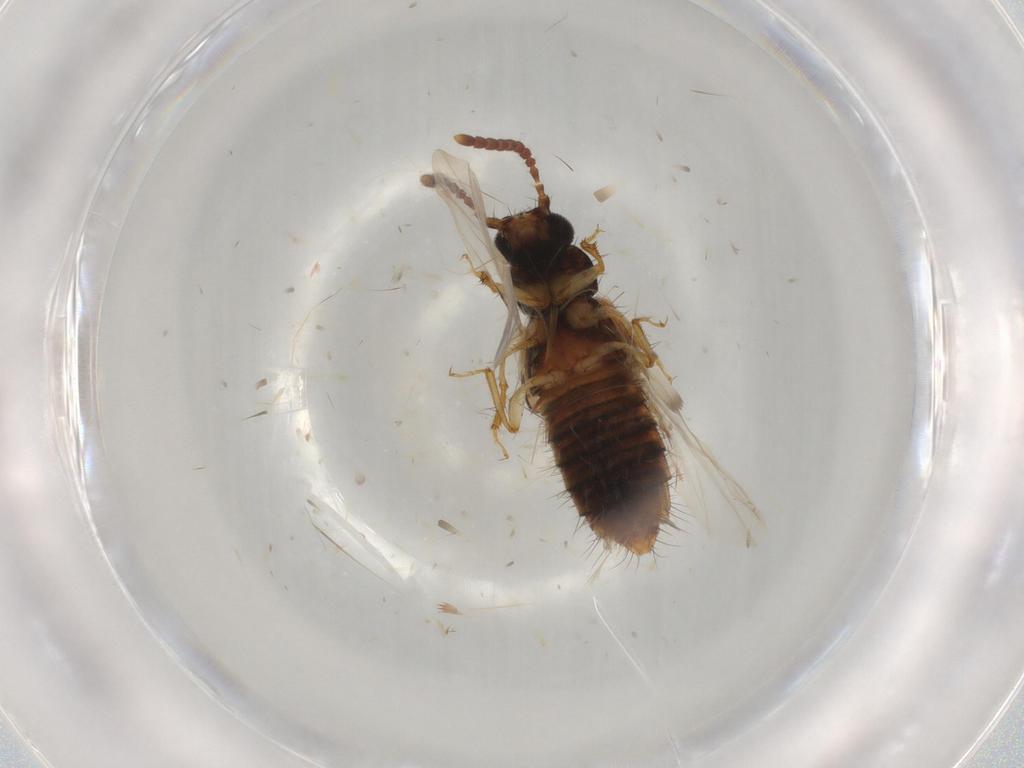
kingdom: Animalia
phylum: Arthropoda
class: Insecta
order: Coleoptera
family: Staphylinidae
